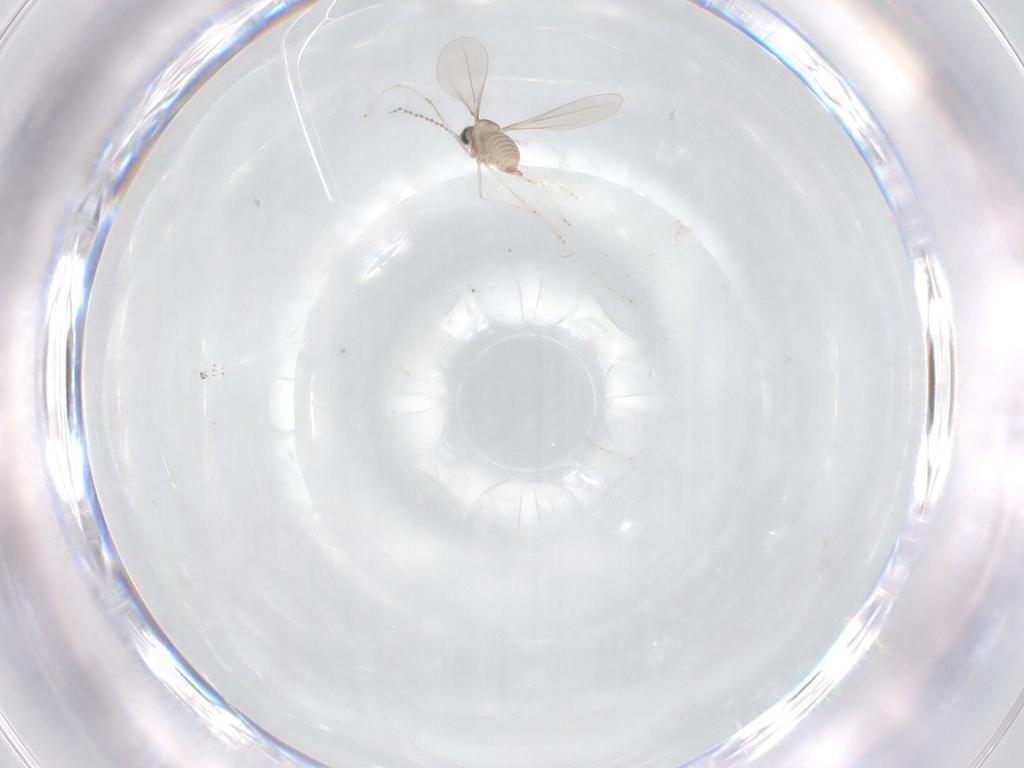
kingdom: Animalia
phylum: Arthropoda
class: Insecta
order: Diptera
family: Cecidomyiidae
